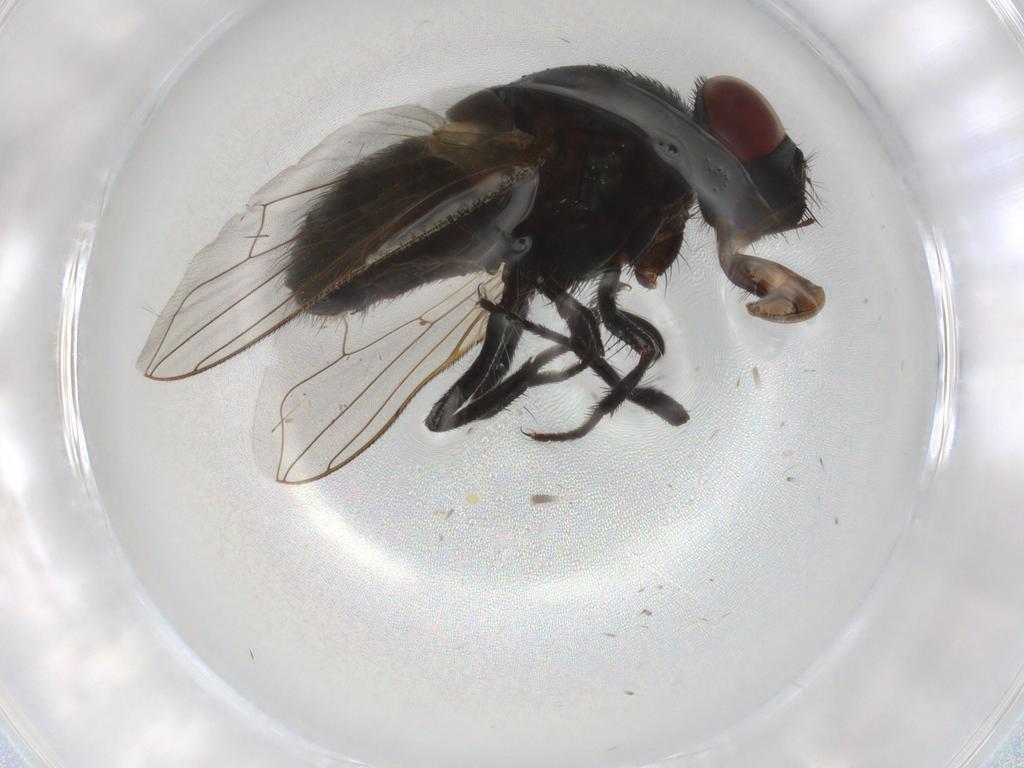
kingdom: Animalia
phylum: Arthropoda
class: Insecta
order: Diptera
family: Muscidae
